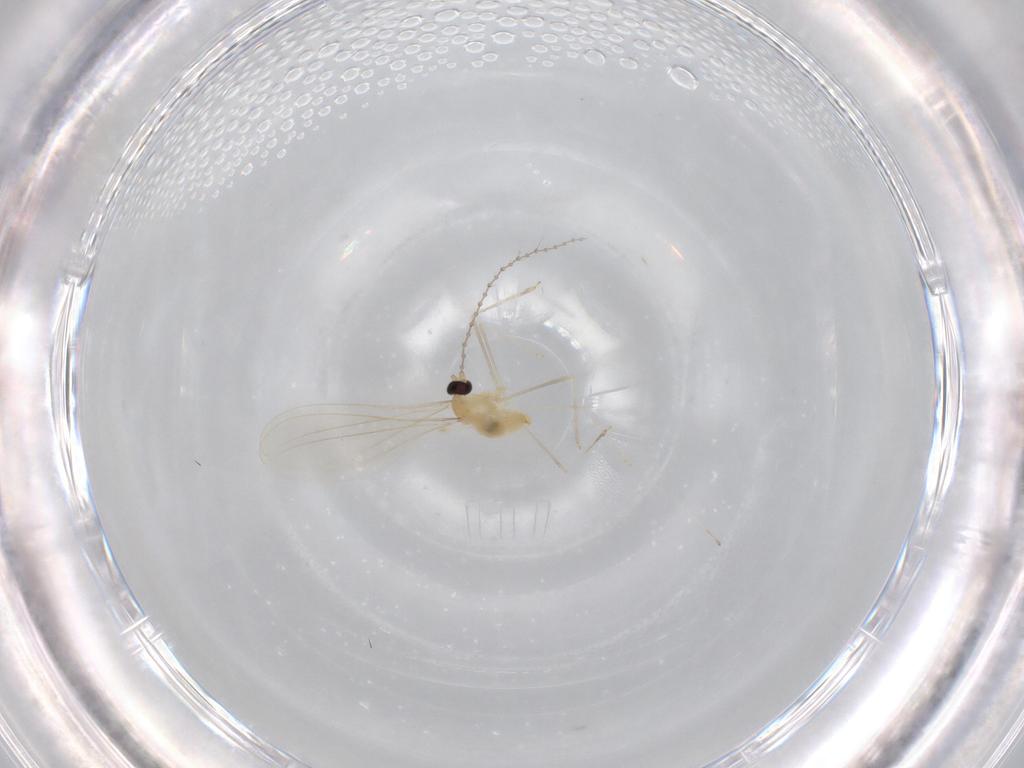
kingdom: Animalia
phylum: Arthropoda
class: Insecta
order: Diptera
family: Cecidomyiidae
